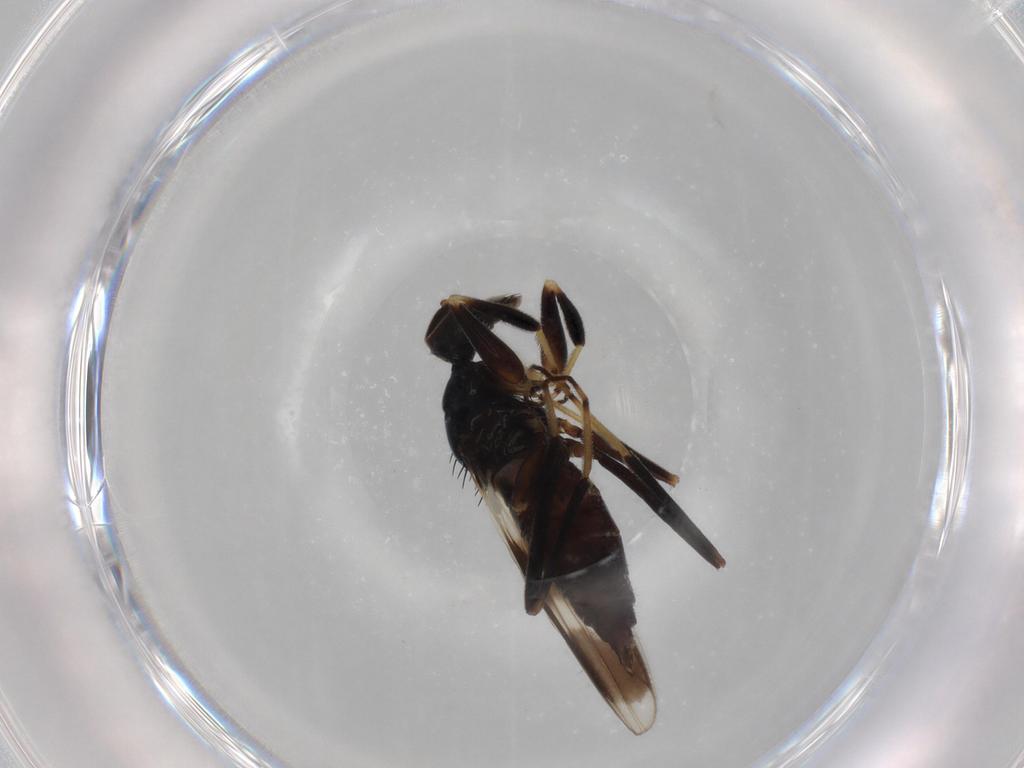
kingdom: Animalia
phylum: Arthropoda
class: Insecta
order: Diptera
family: Hybotidae
